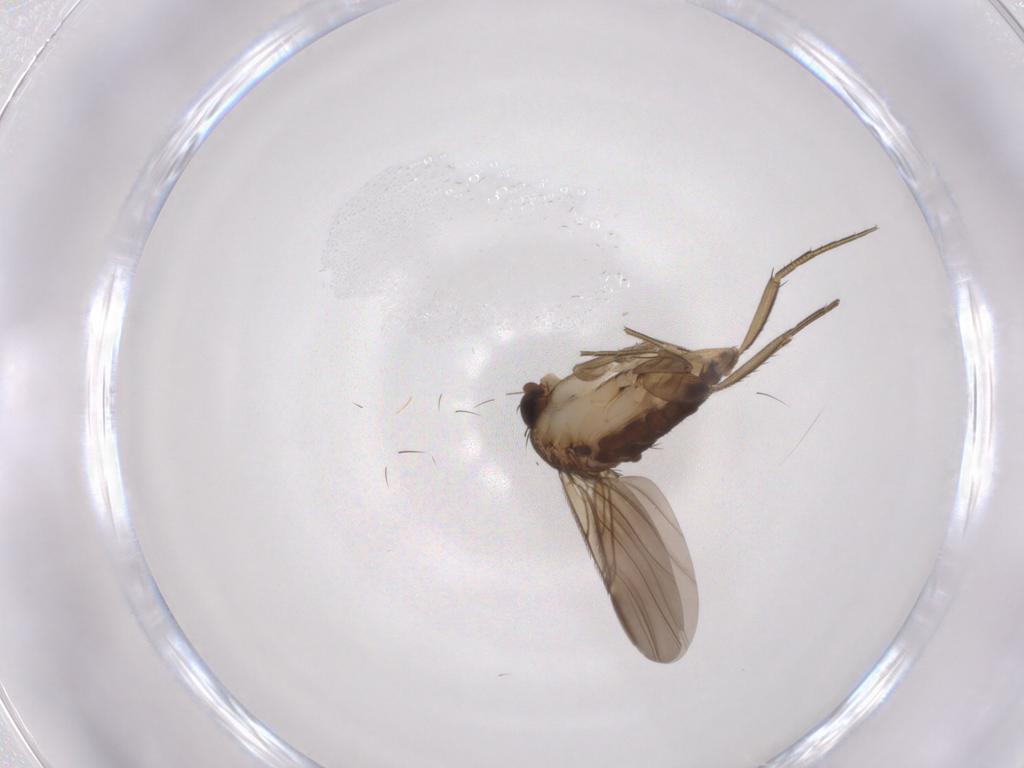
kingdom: Animalia
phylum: Arthropoda
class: Insecta
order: Diptera
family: Phoridae
